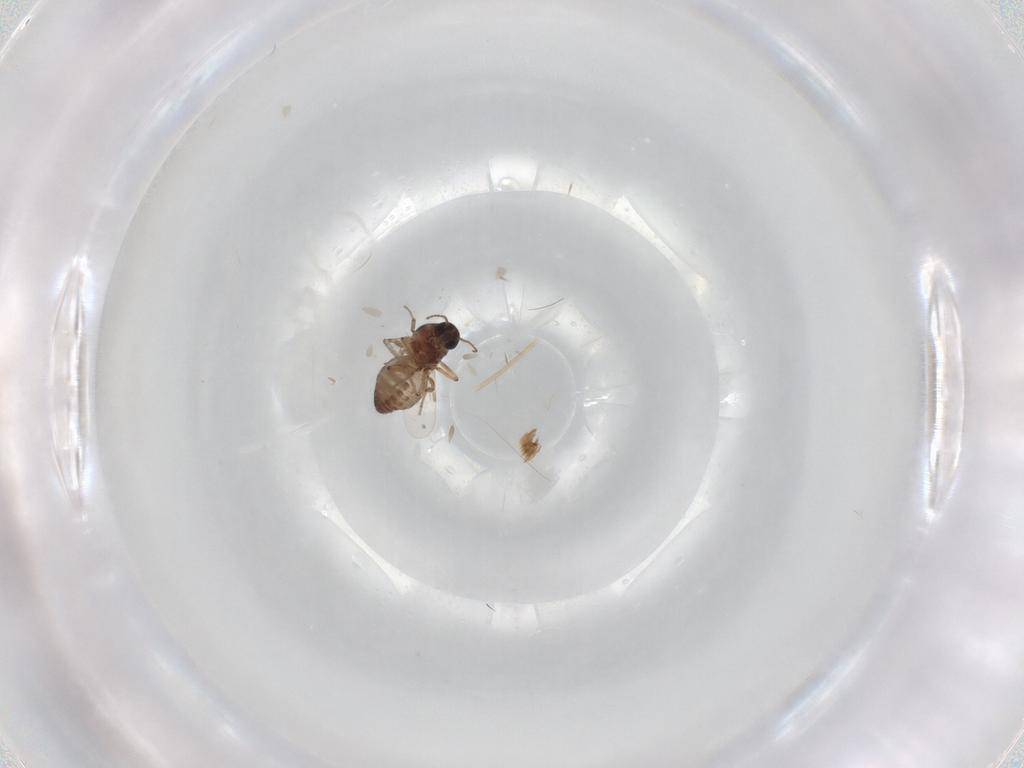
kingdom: Animalia
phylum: Arthropoda
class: Insecta
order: Diptera
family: Ceratopogonidae
